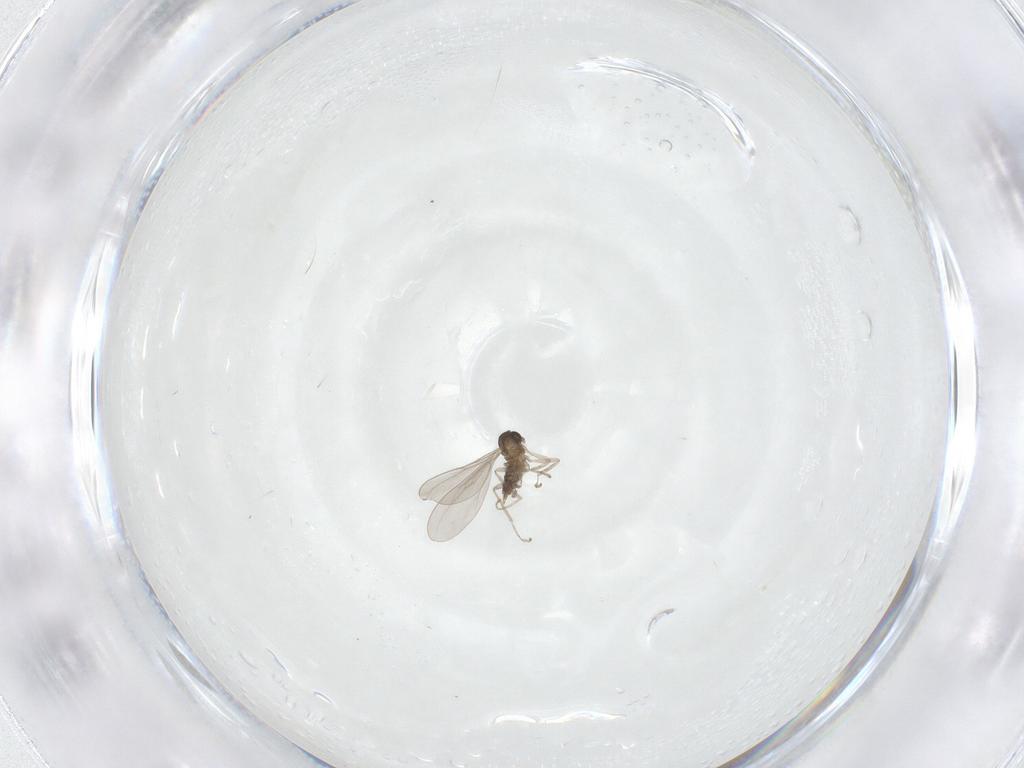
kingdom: Animalia
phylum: Arthropoda
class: Insecta
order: Diptera
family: Cecidomyiidae
